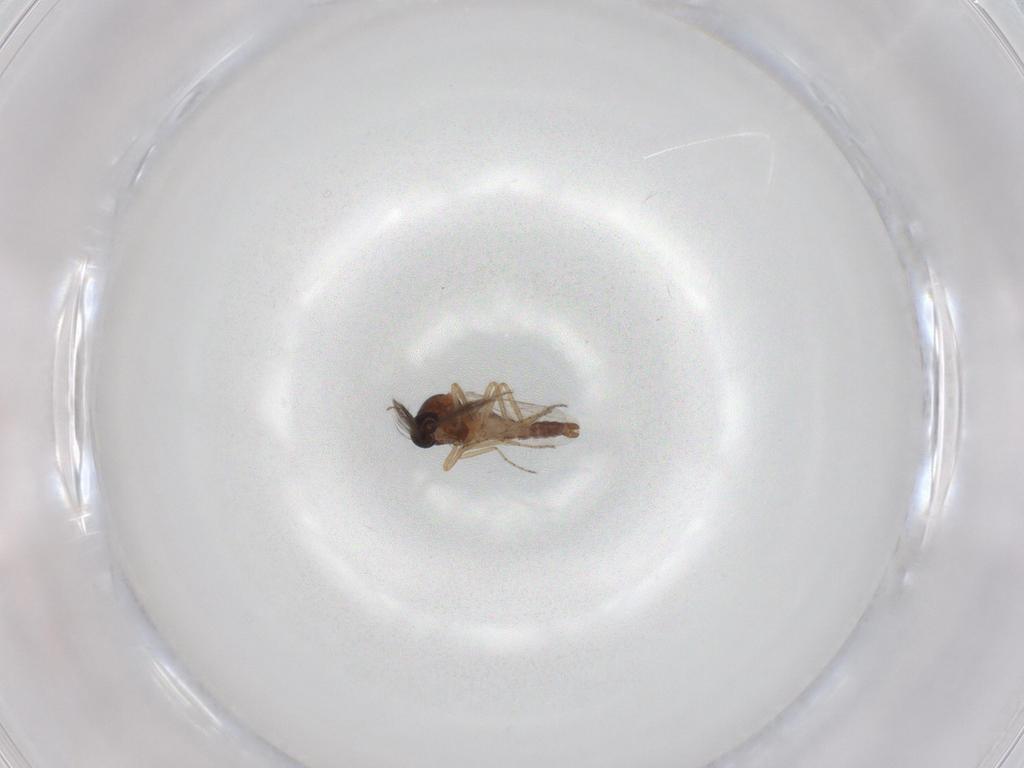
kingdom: Animalia
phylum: Arthropoda
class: Insecta
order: Diptera
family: Ceratopogonidae
